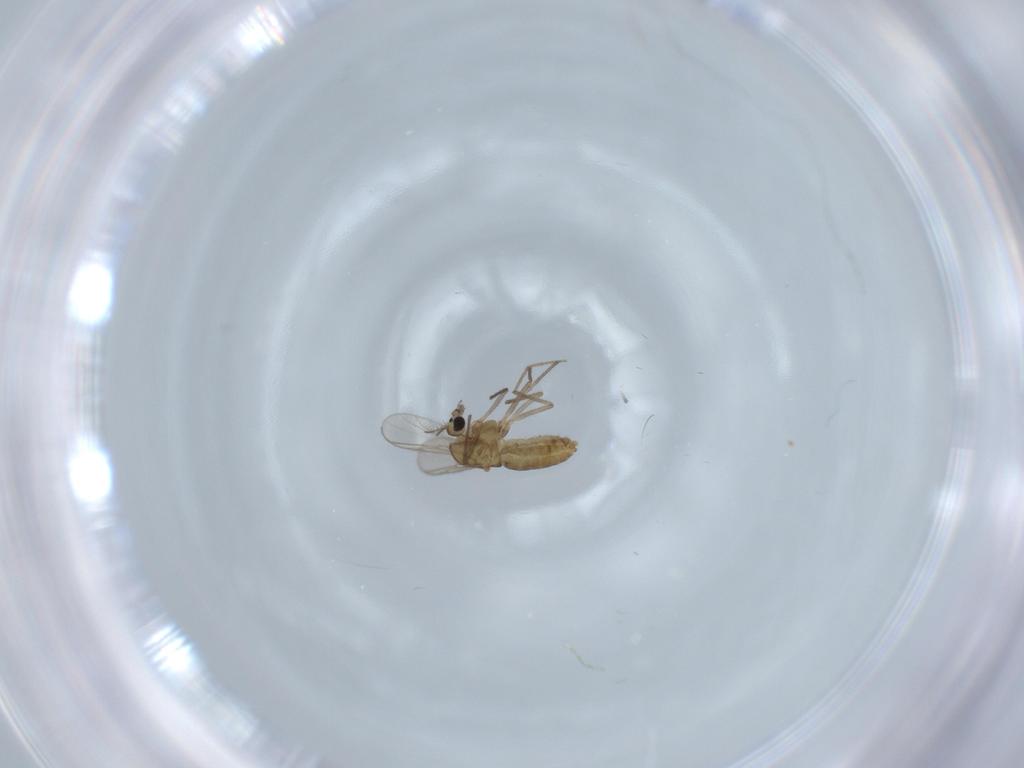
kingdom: Animalia
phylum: Arthropoda
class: Insecta
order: Diptera
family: Chironomidae
